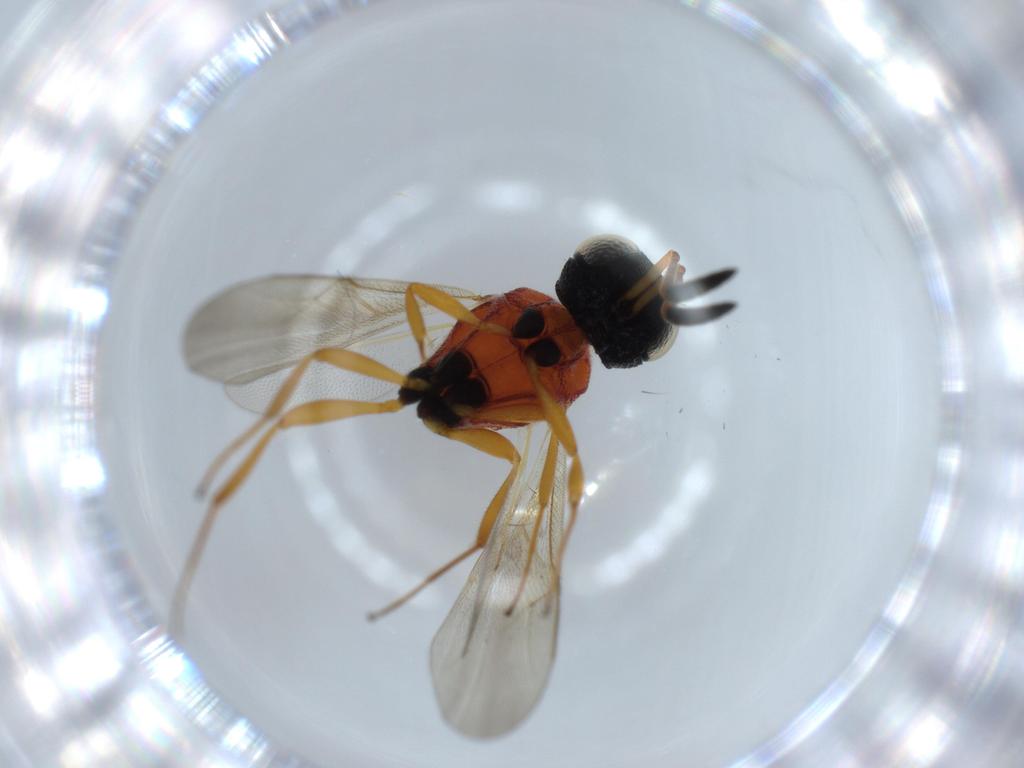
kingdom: Animalia
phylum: Arthropoda
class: Insecta
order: Hymenoptera
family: Scelionidae
